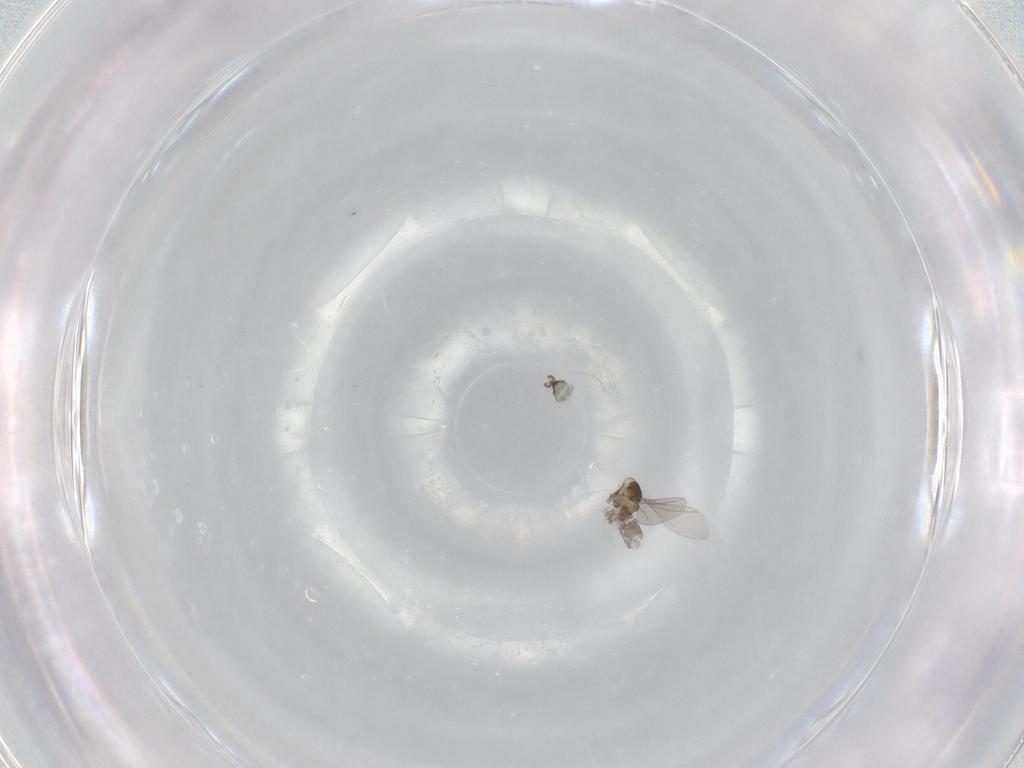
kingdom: Animalia
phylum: Arthropoda
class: Insecta
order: Diptera
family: Cecidomyiidae
